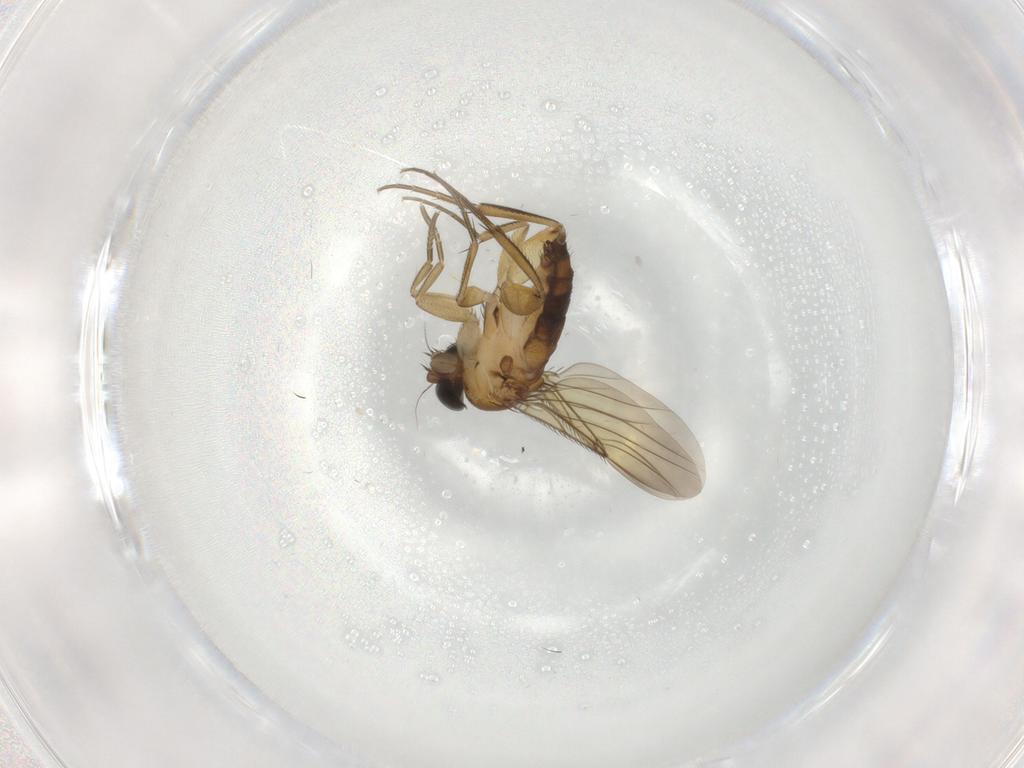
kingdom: Animalia
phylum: Arthropoda
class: Insecta
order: Diptera
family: Phoridae
